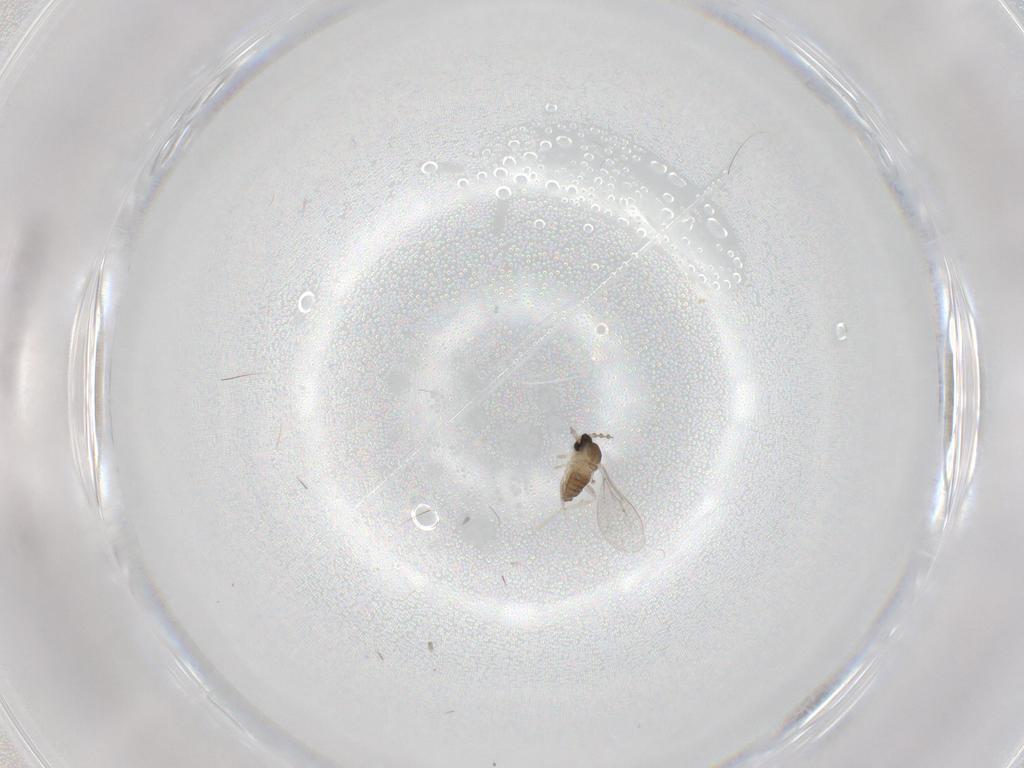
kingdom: Animalia
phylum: Arthropoda
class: Insecta
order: Diptera
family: Cecidomyiidae
